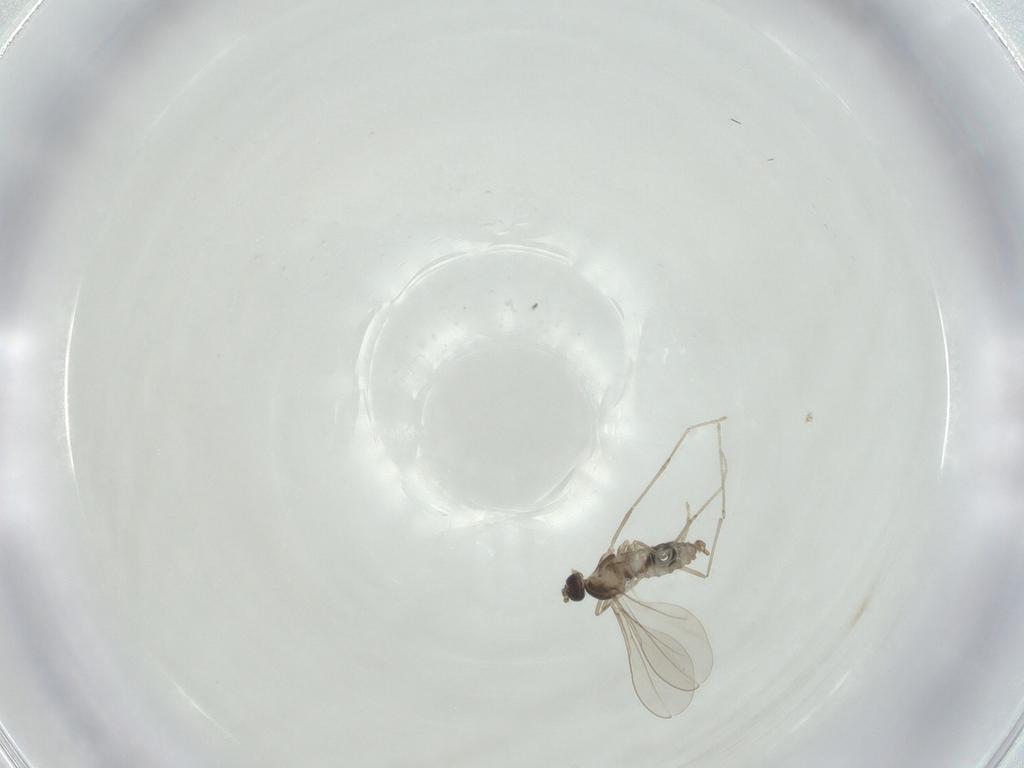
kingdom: Animalia
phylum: Arthropoda
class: Insecta
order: Diptera
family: Chironomidae
